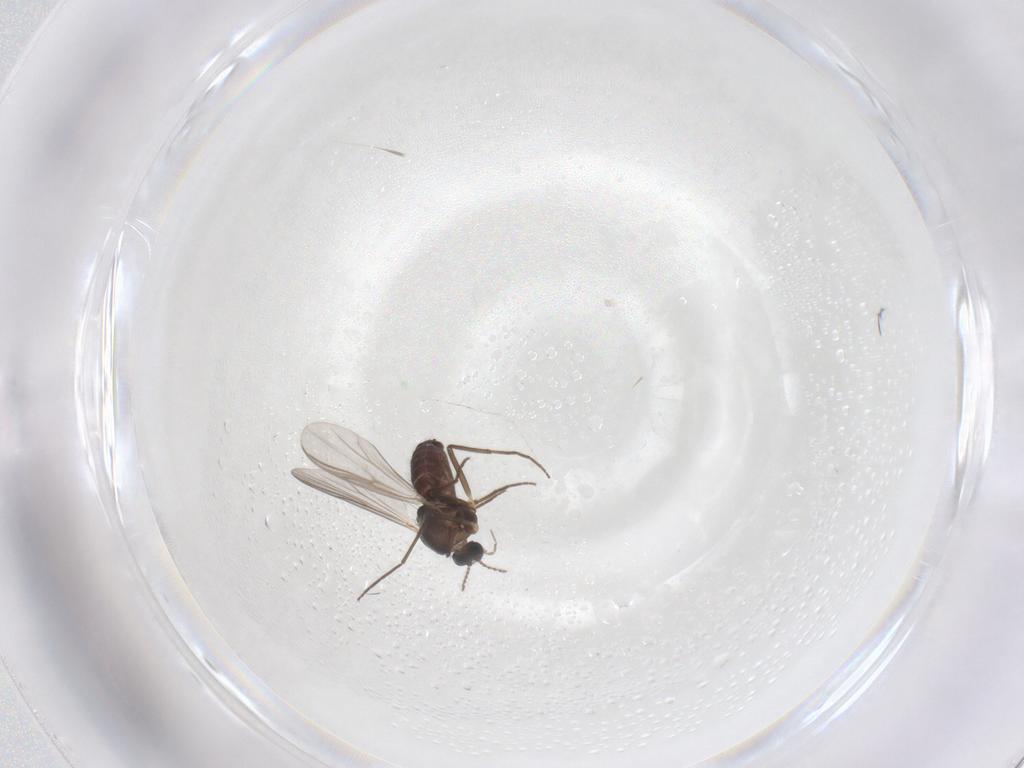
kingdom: Animalia
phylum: Arthropoda
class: Insecta
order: Diptera
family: Chironomidae
